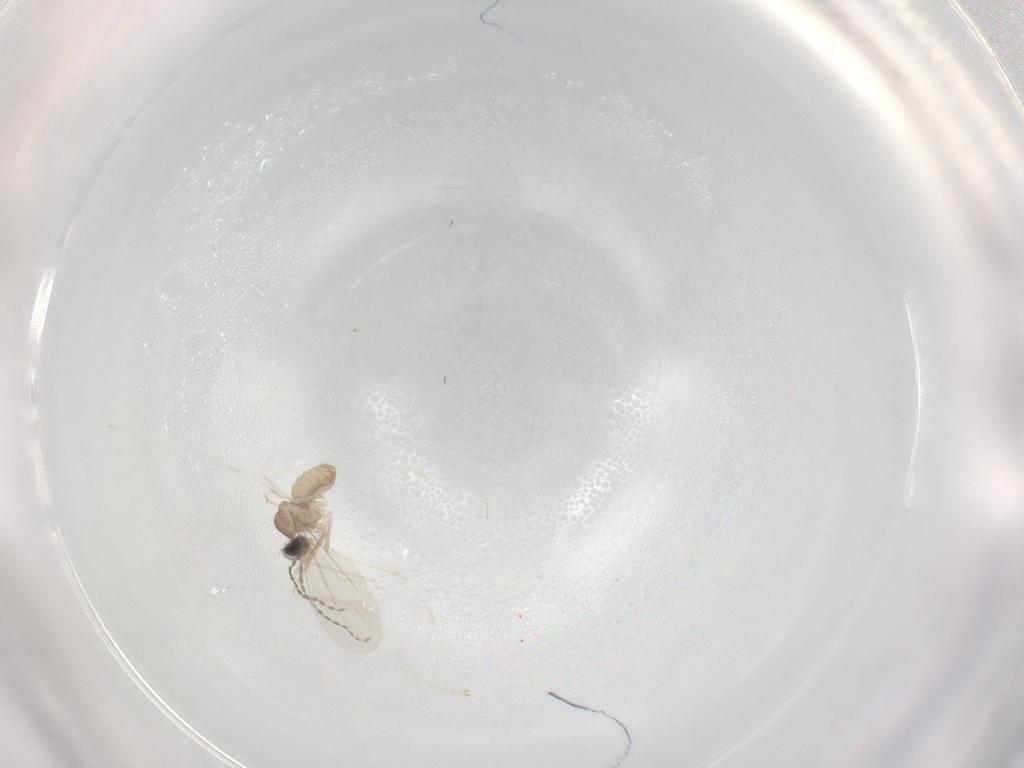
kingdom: Animalia
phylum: Arthropoda
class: Insecta
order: Diptera
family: Cecidomyiidae
